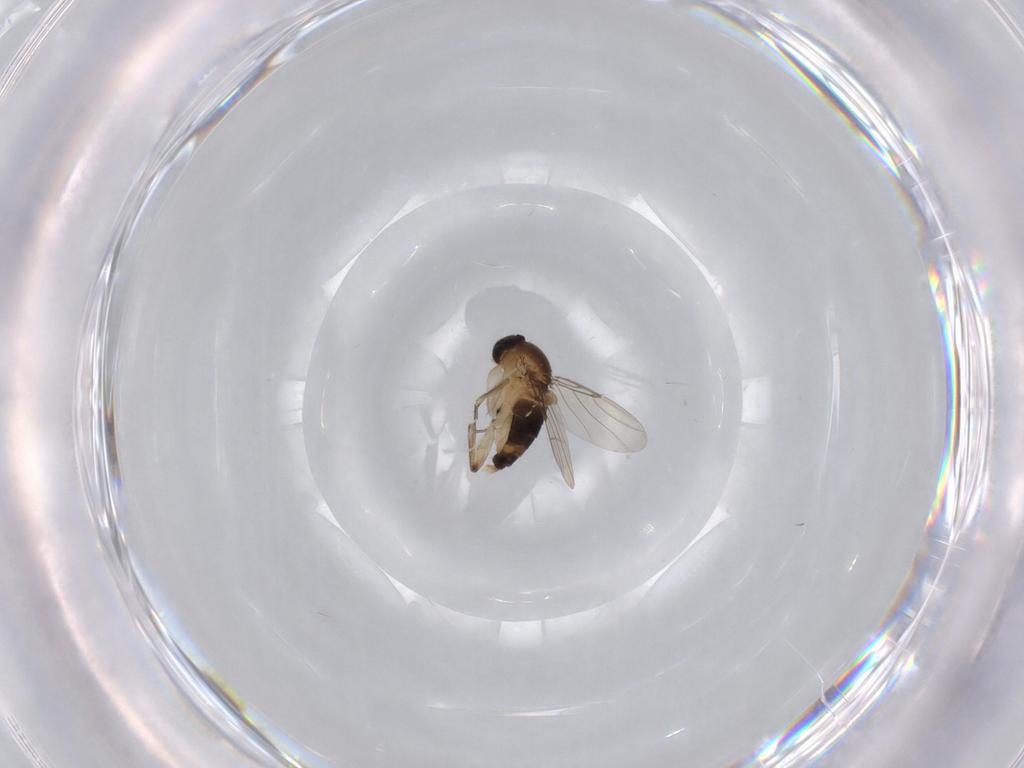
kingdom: Animalia
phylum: Arthropoda
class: Insecta
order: Diptera
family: Phoridae
